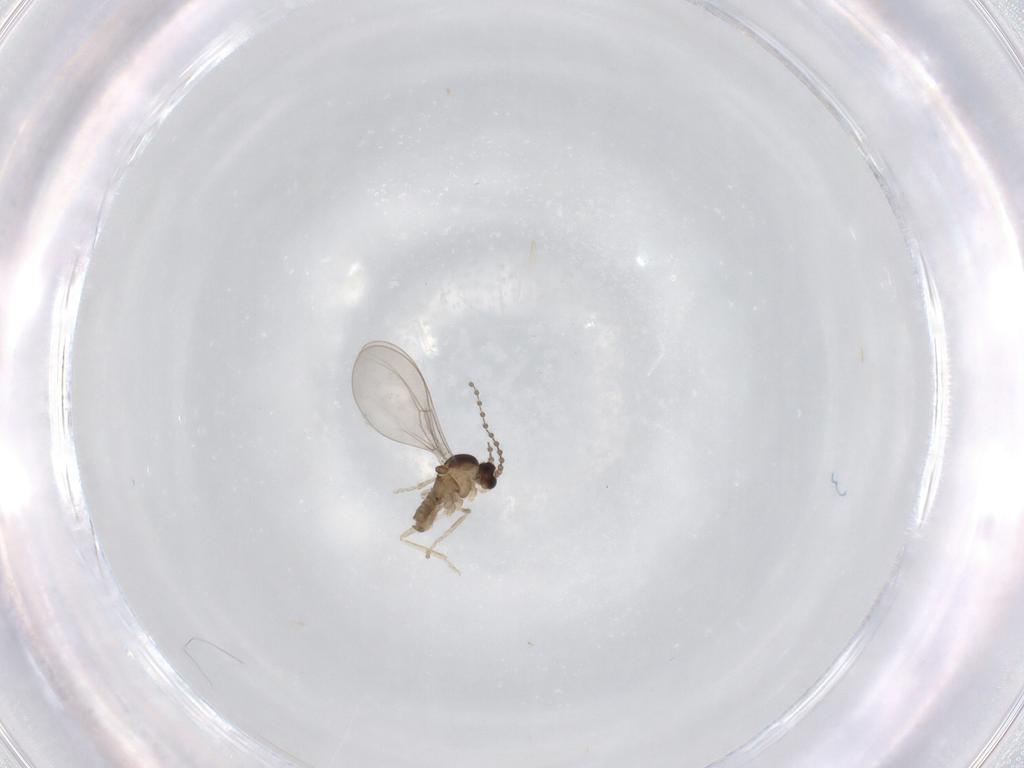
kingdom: Animalia
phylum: Arthropoda
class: Insecta
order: Diptera
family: Cecidomyiidae
